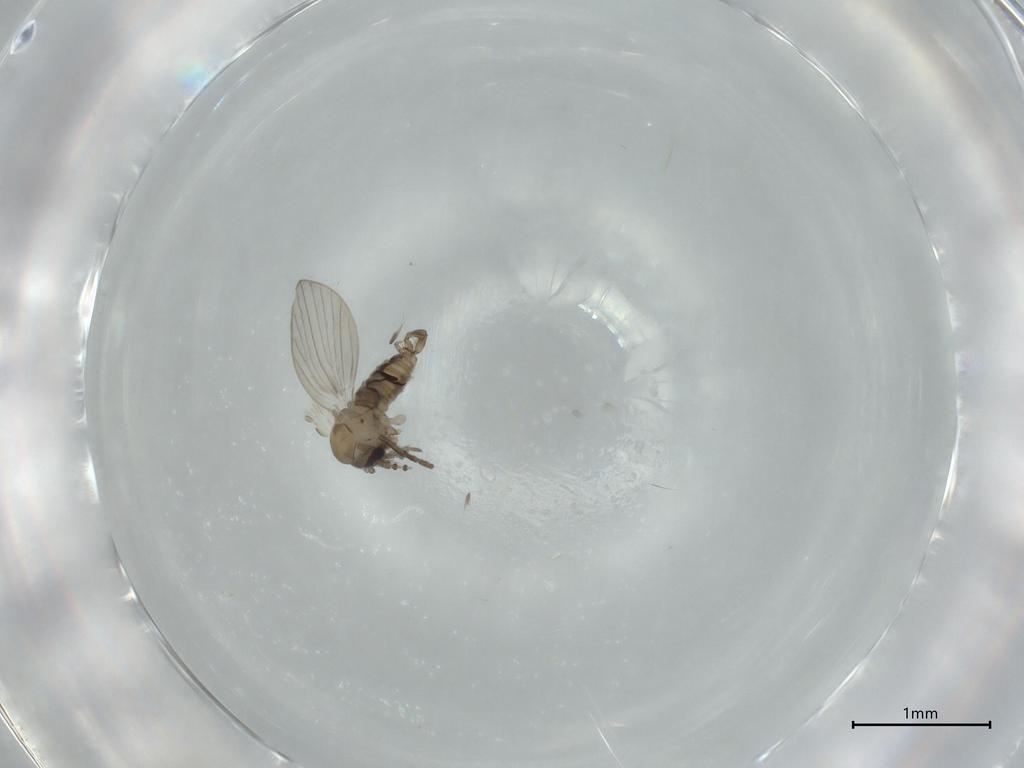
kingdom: Animalia
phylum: Arthropoda
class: Insecta
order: Diptera
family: Psychodidae
